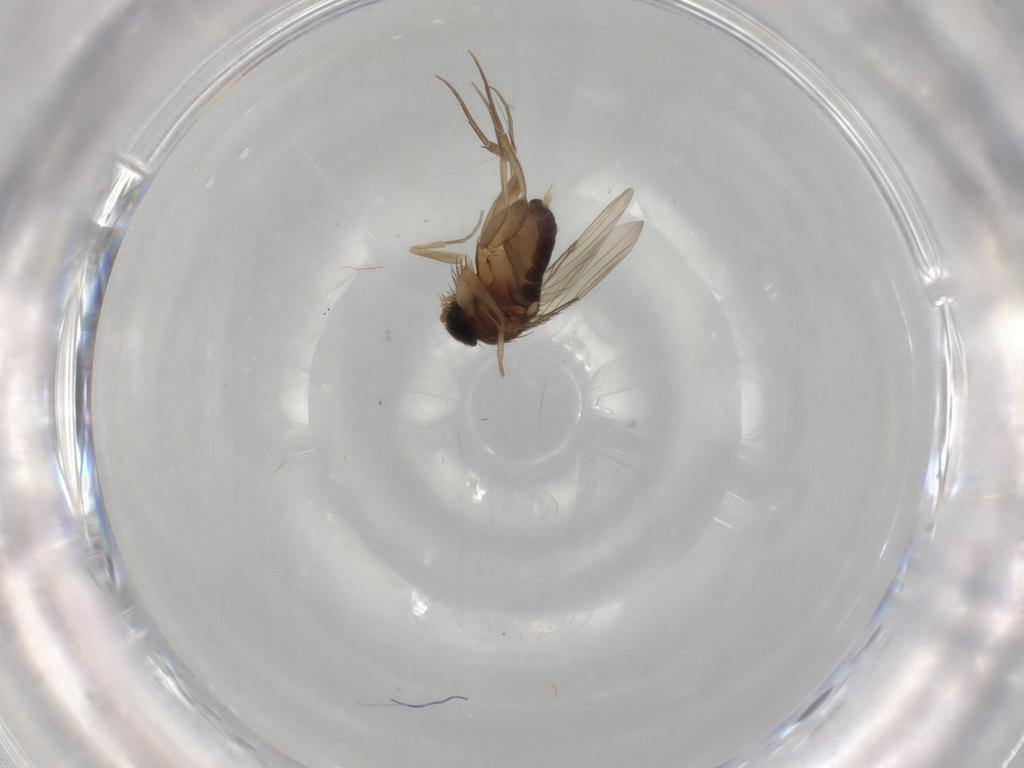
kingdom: Animalia
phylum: Arthropoda
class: Insecta
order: Diptera
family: Phoridae
